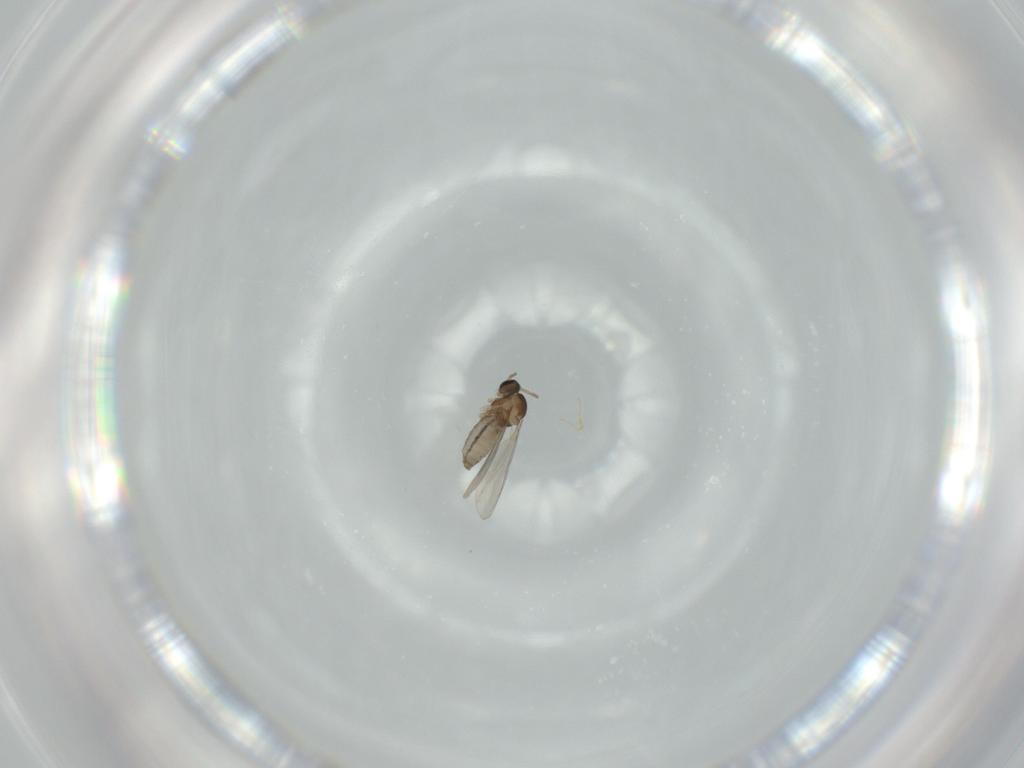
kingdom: Animalia
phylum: Arthropoda
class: Insecta
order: Diptera
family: Cecidomyiidae
